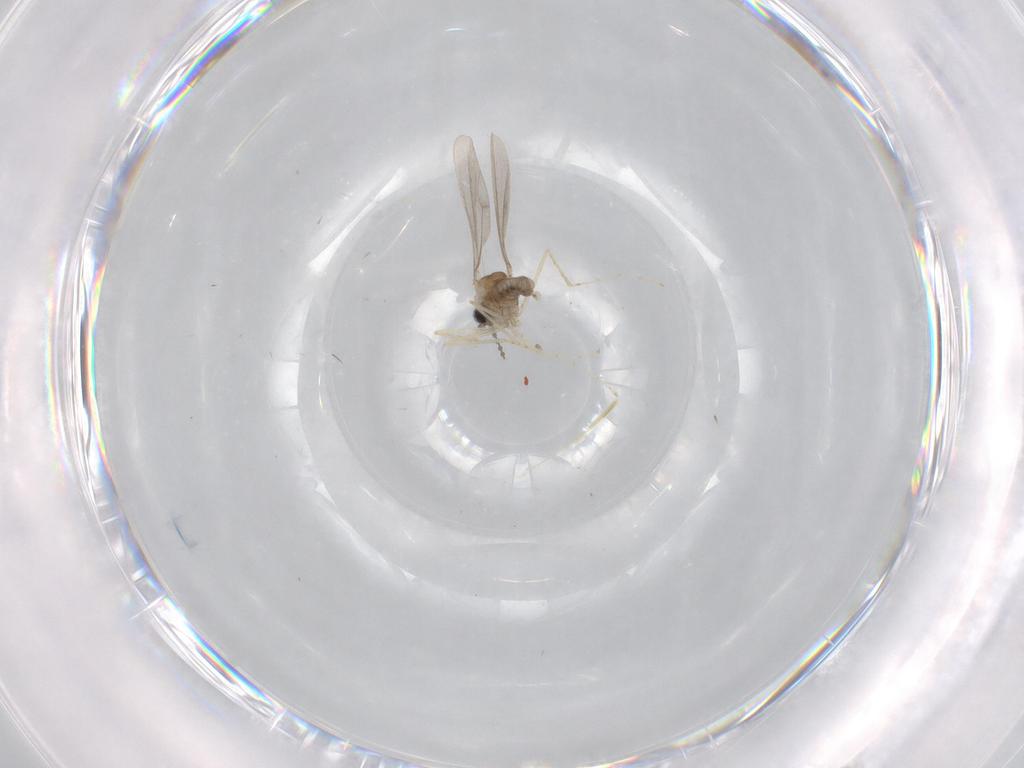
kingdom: Animalia
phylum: Arthropoda
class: Insecta
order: Diptera
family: Cecidomyiidae
